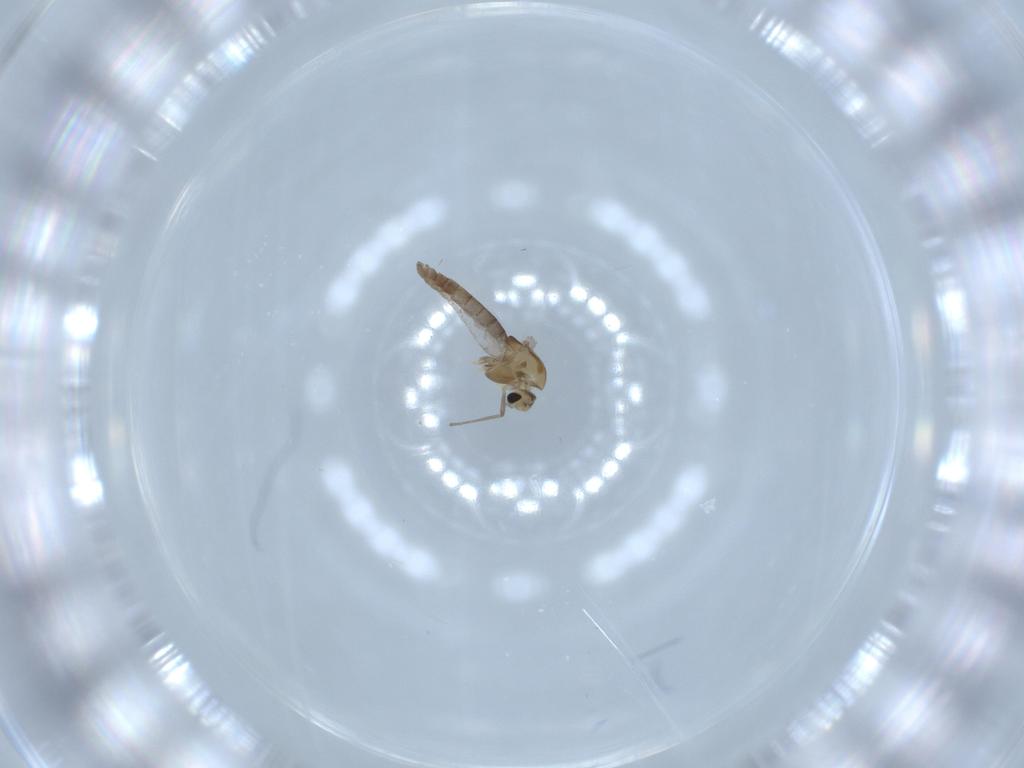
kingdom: Animalia
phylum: Arthropoda
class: Insecta
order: Diptera
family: Chironomidae
